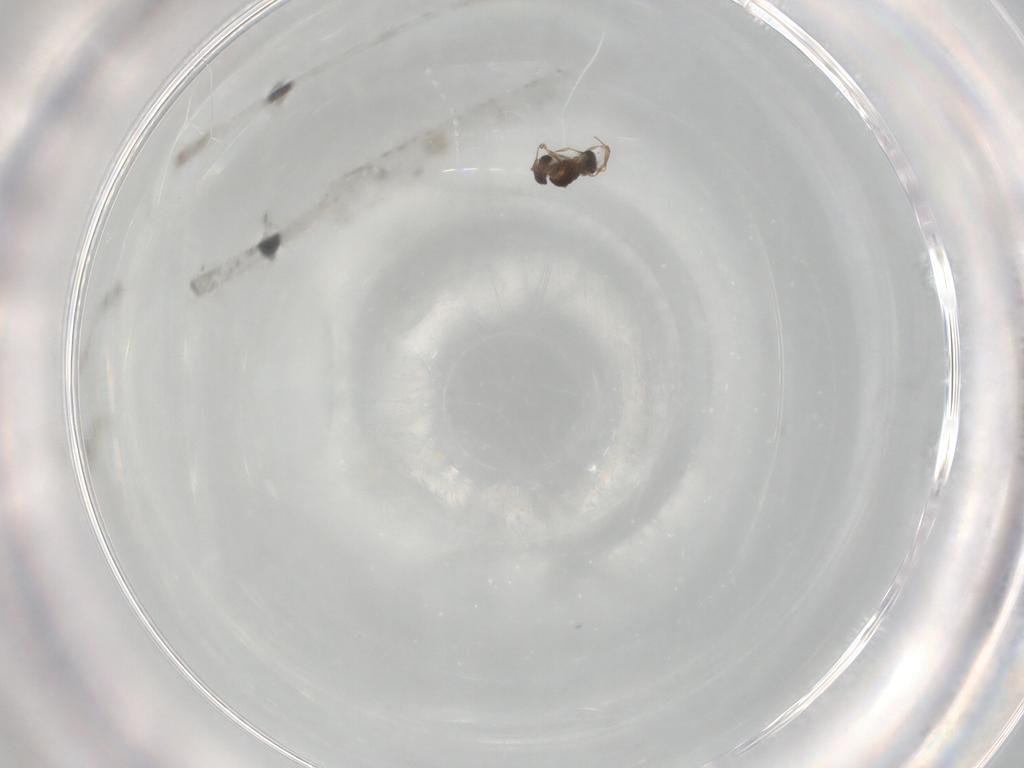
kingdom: Animalia
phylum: Arthropoda
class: Insecta
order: Hymenoptera
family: Scelionidae
